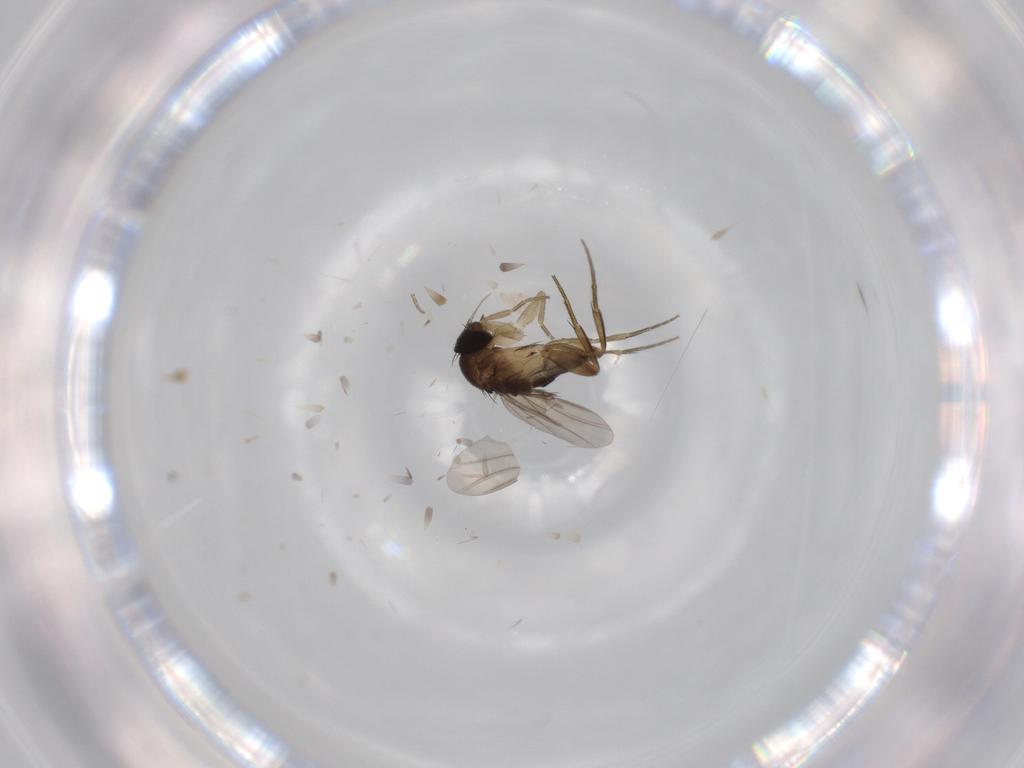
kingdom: Animalia
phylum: Arthropoda
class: Insecta
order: Diptera
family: Phoridae
